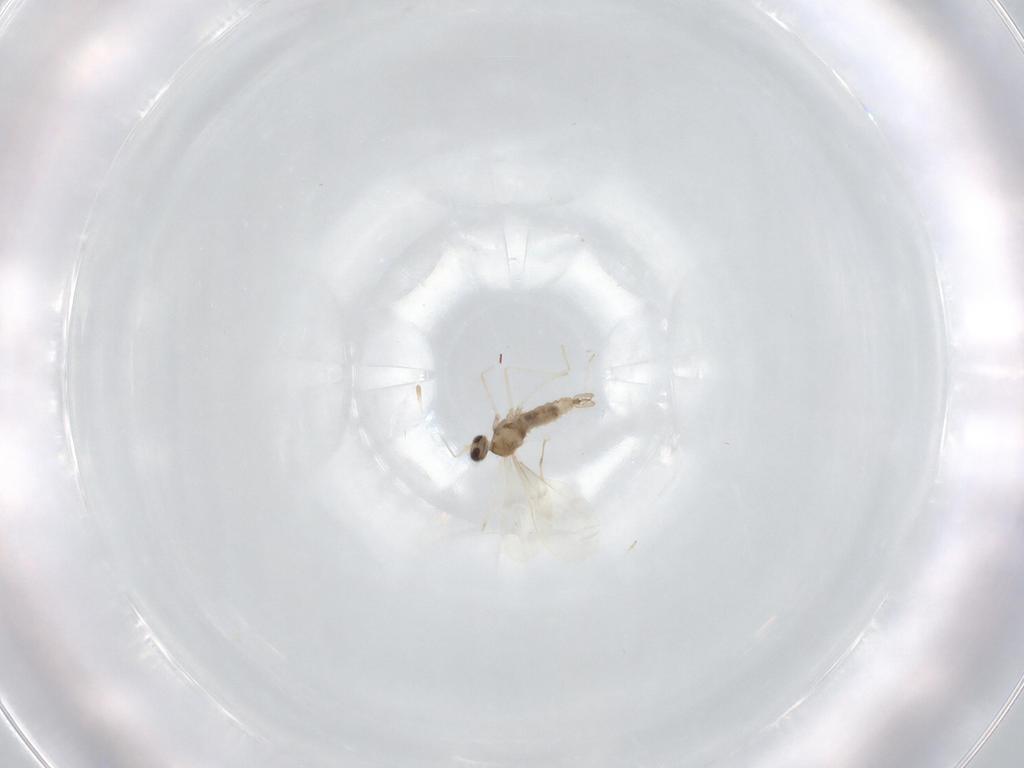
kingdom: Animalia
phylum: Arthropoda
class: Insecta
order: Diptera
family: Cecidomyiidae
